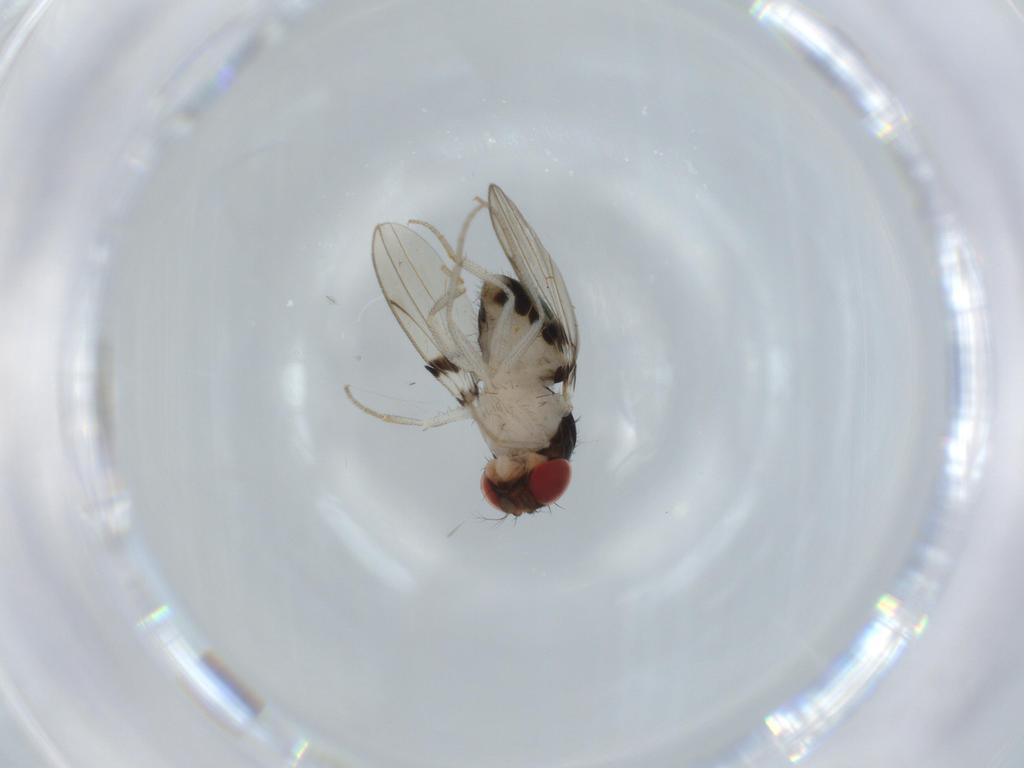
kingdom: Animalia
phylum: Arthropoda
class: Insecta
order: Diptera
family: Drosophilidae
